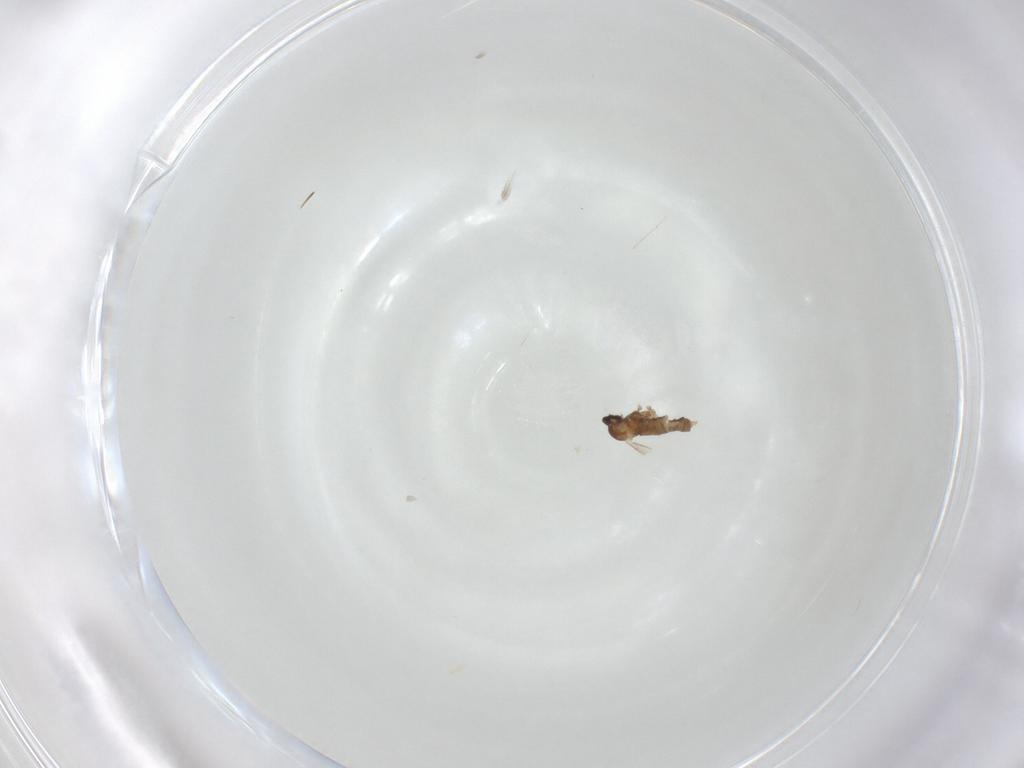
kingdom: Animalia
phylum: Arthropoda
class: Insecta
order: Diptera
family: Cecidomyiidae
